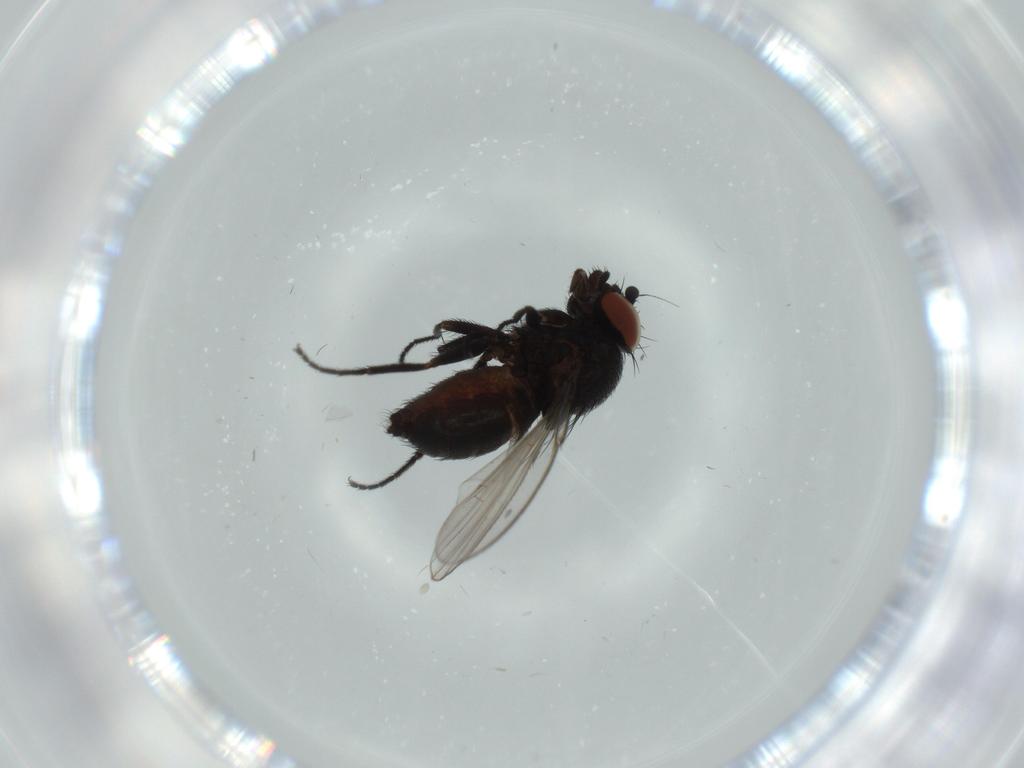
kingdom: Animalia
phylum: Arthropoda
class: Insecta
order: Diptera
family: Milichiidae
